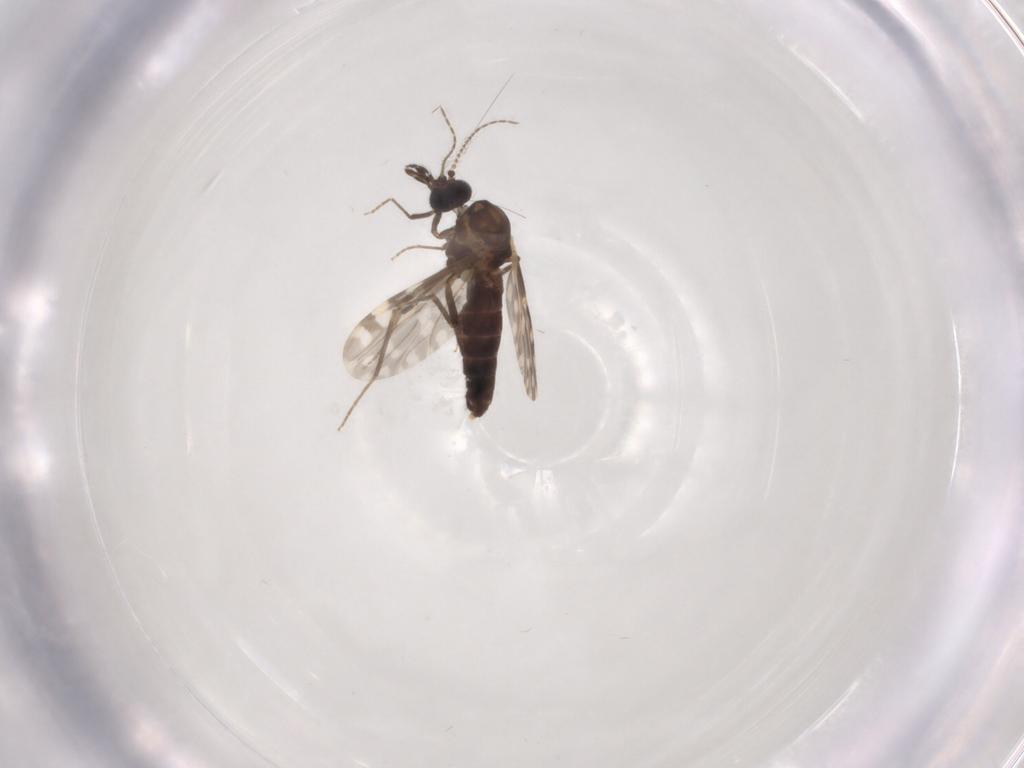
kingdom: Animalia
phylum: Arthropoda
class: Insecta
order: Diptera
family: Ceratopogonidae
